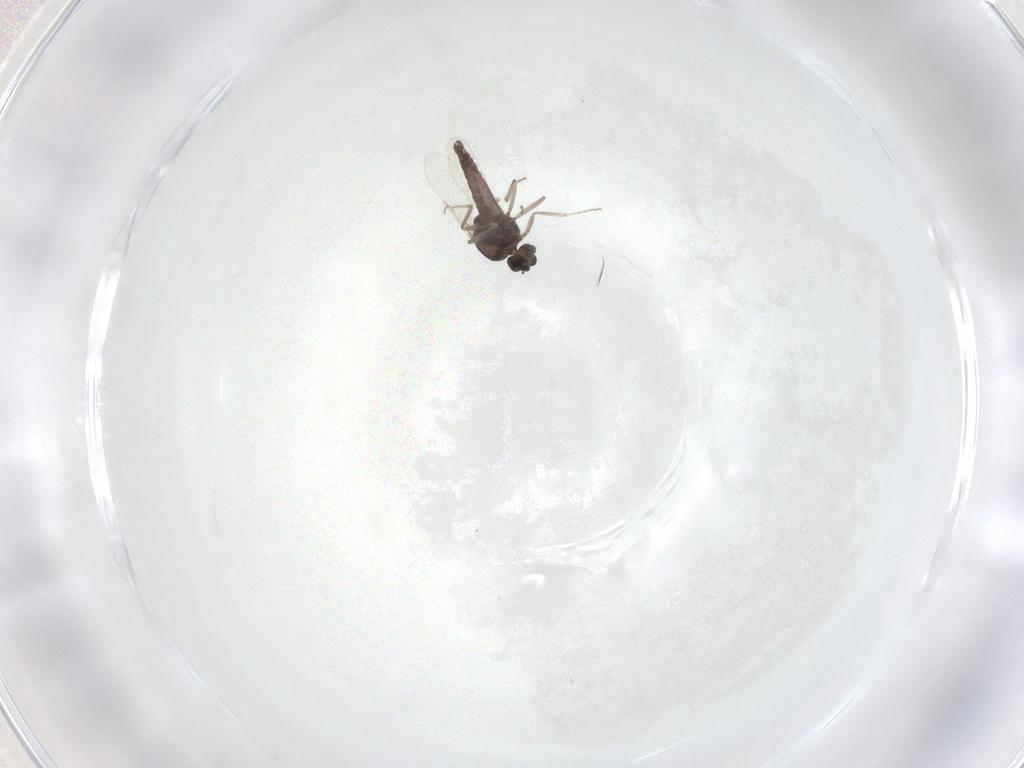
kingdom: Animalia
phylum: Arthropoda
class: Insecta
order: Diptera
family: Ceratopogonidae
